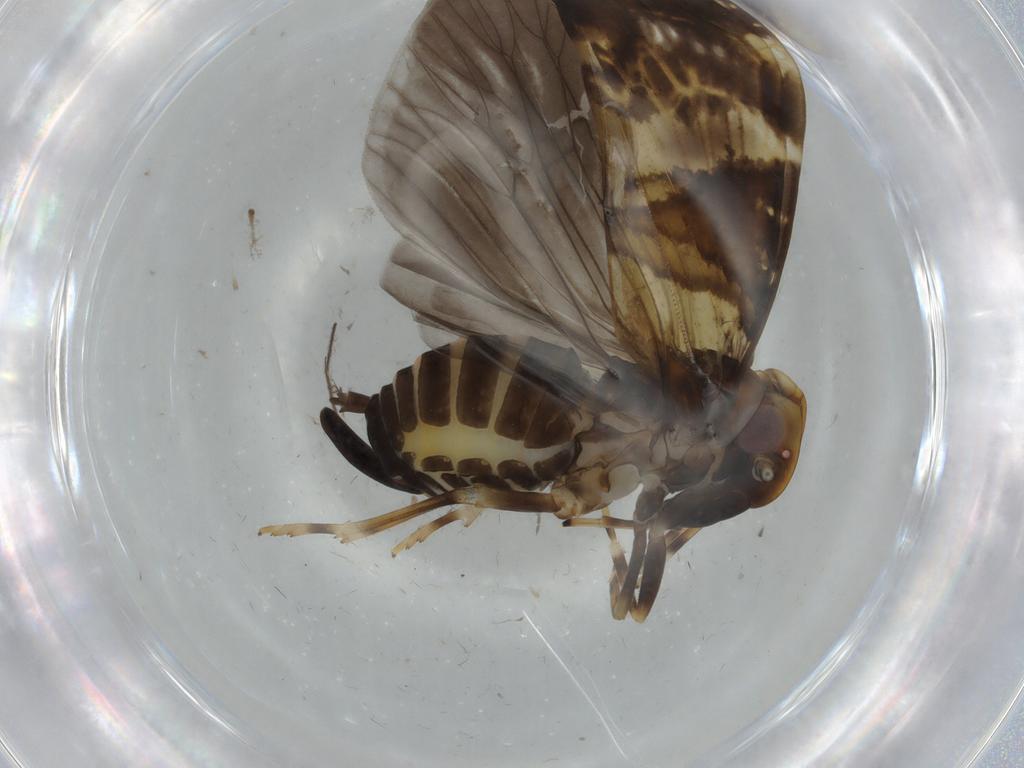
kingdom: Animalia
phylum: Arthropoda
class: Insecta
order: Hemiptera
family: Cixiidae
